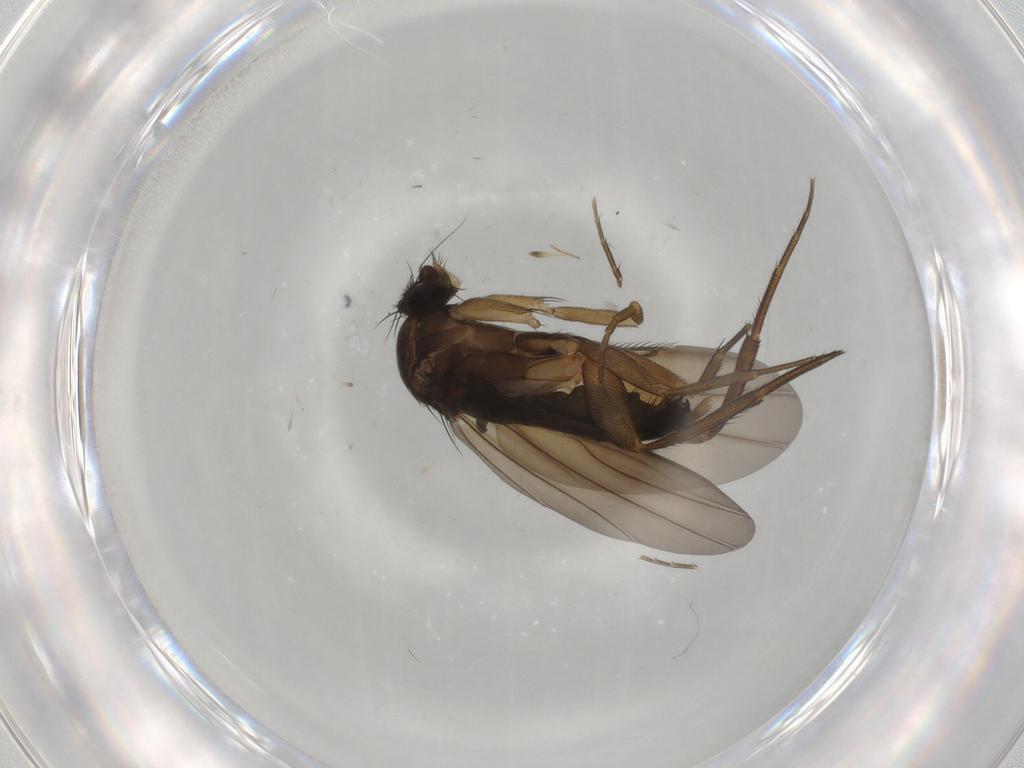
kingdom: Animalia
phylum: Arthropoda
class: Insecta
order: Diptera
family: Phoridae
